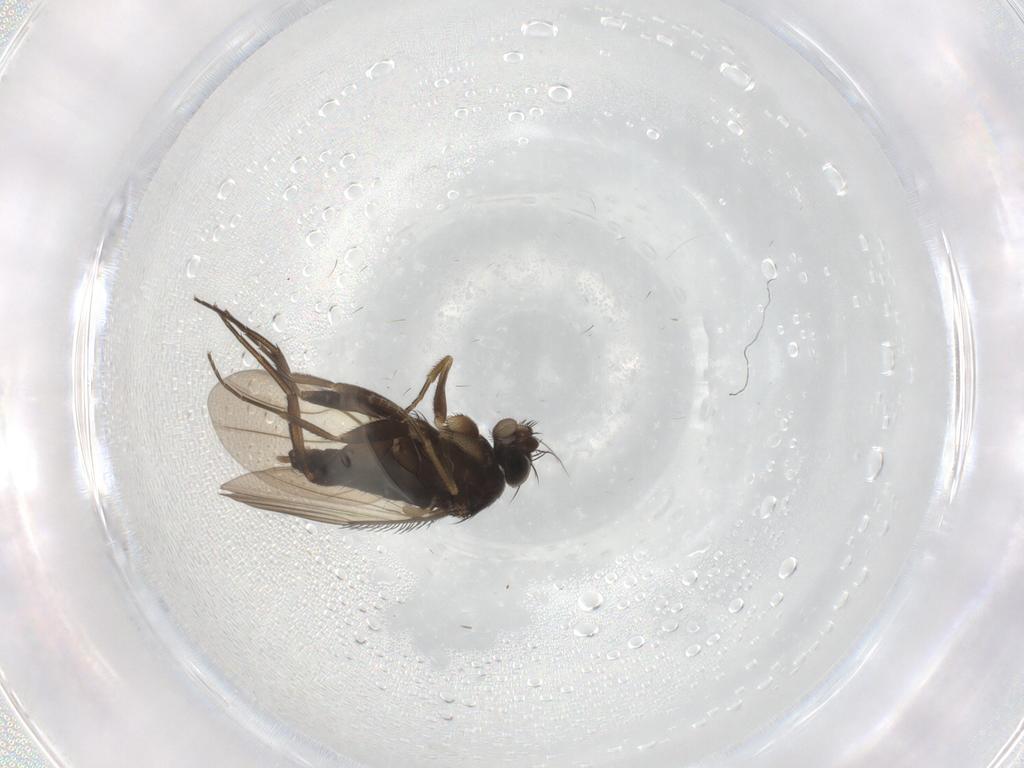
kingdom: Animalia
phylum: Arthropoda
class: Insecta
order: Diptera
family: Phoridae
